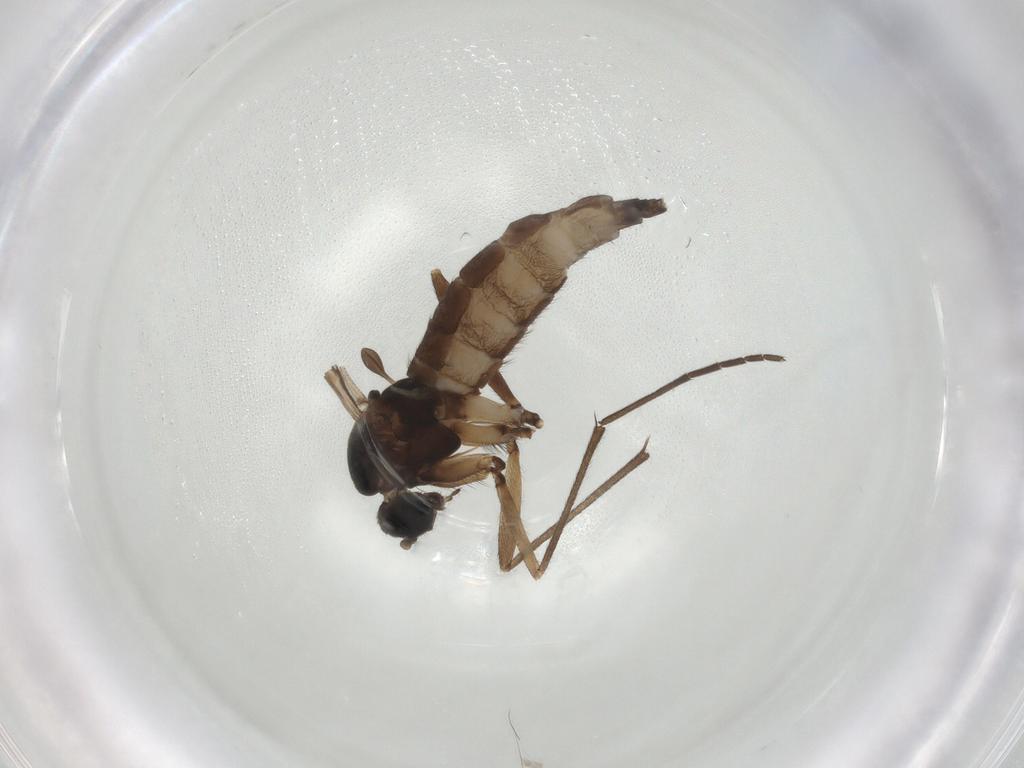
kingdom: Animalia
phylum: Arthropoda
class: Insecta
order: Diptera
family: Sciaridae
